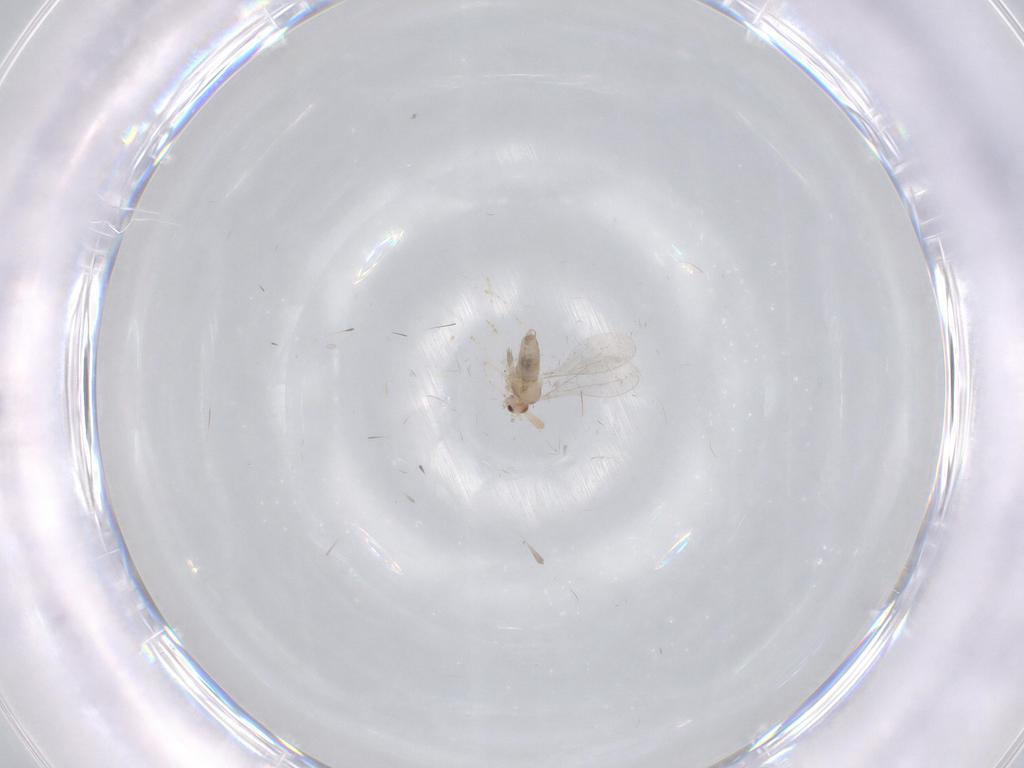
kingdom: Animalia
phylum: Arthropoda
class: Insecta
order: Diptera
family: Cecidomyiidae
